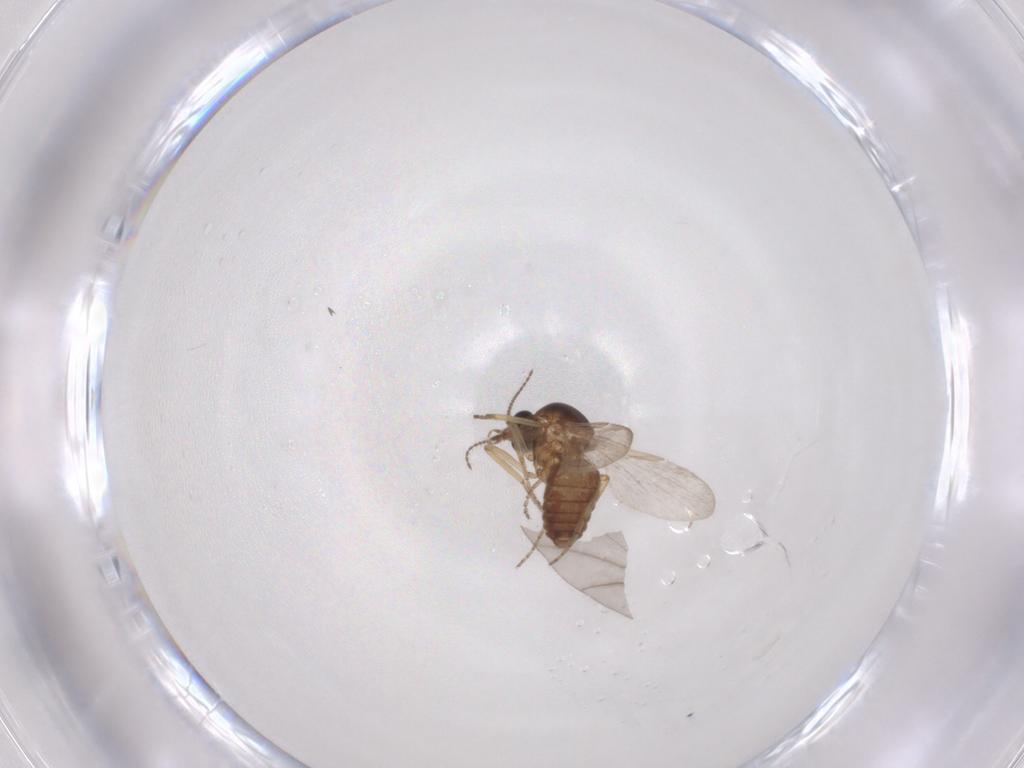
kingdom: Animalia
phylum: Arthropoda
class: Insecta
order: Diptera
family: Ceratopogonidae
